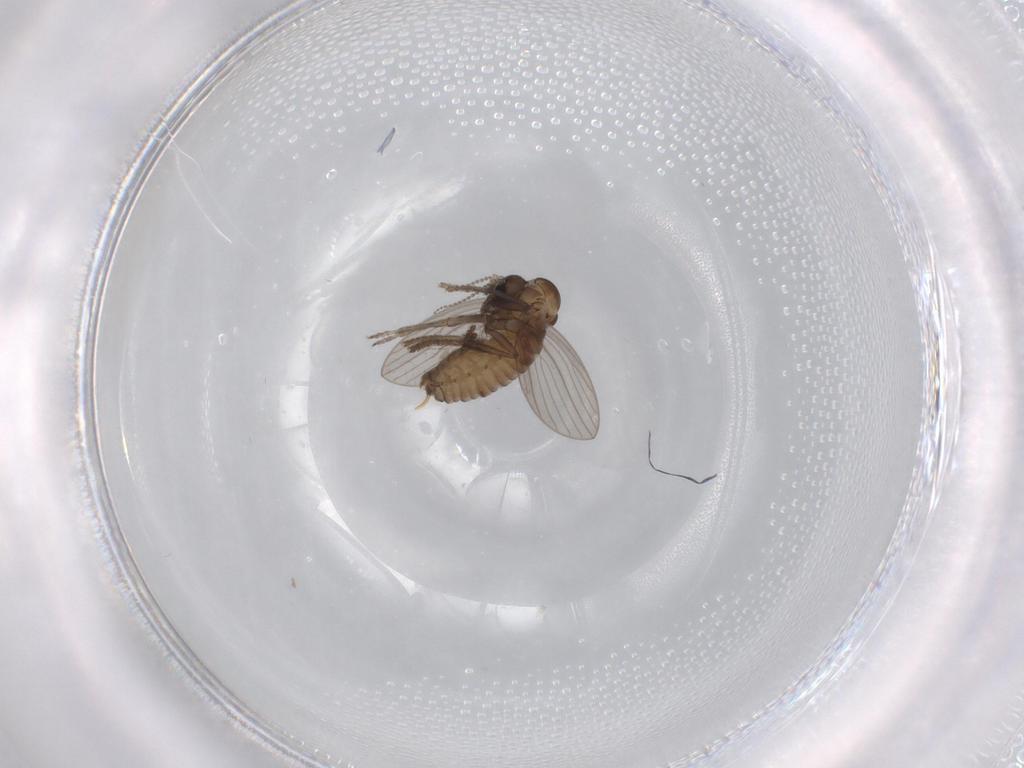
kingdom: Animalia
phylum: Arthropoda
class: Insecta
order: Diptera
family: Psychodidae
